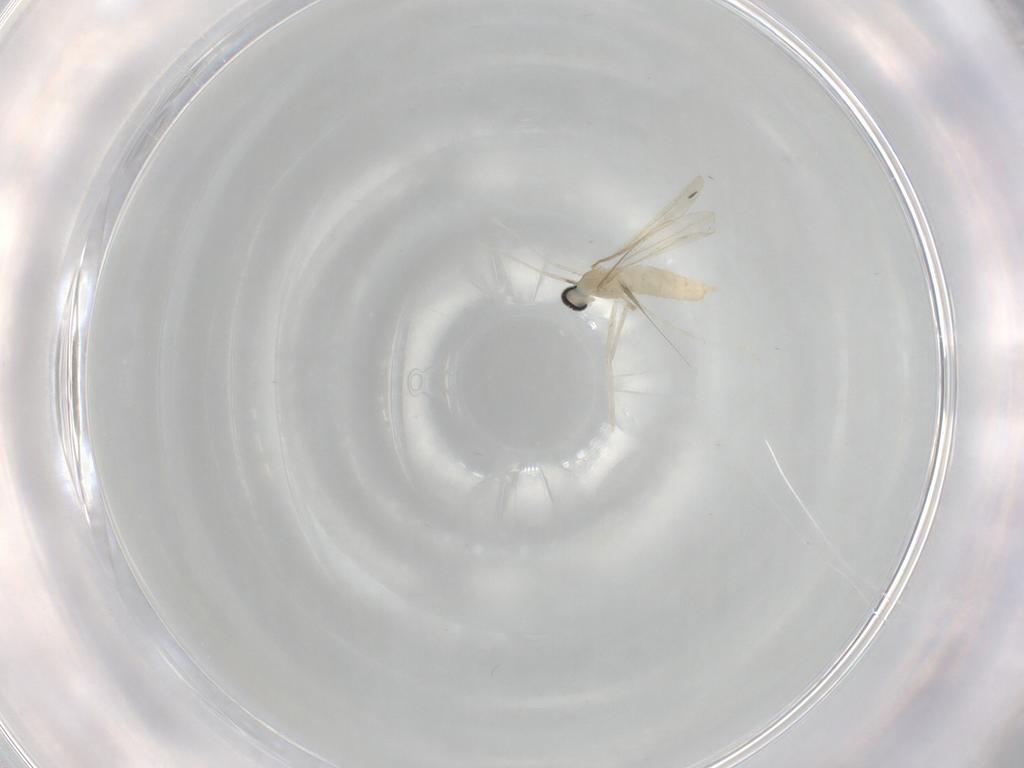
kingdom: Animalia
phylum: Arthropoda
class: Insecta
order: Diptera
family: Cecidomyiidae
